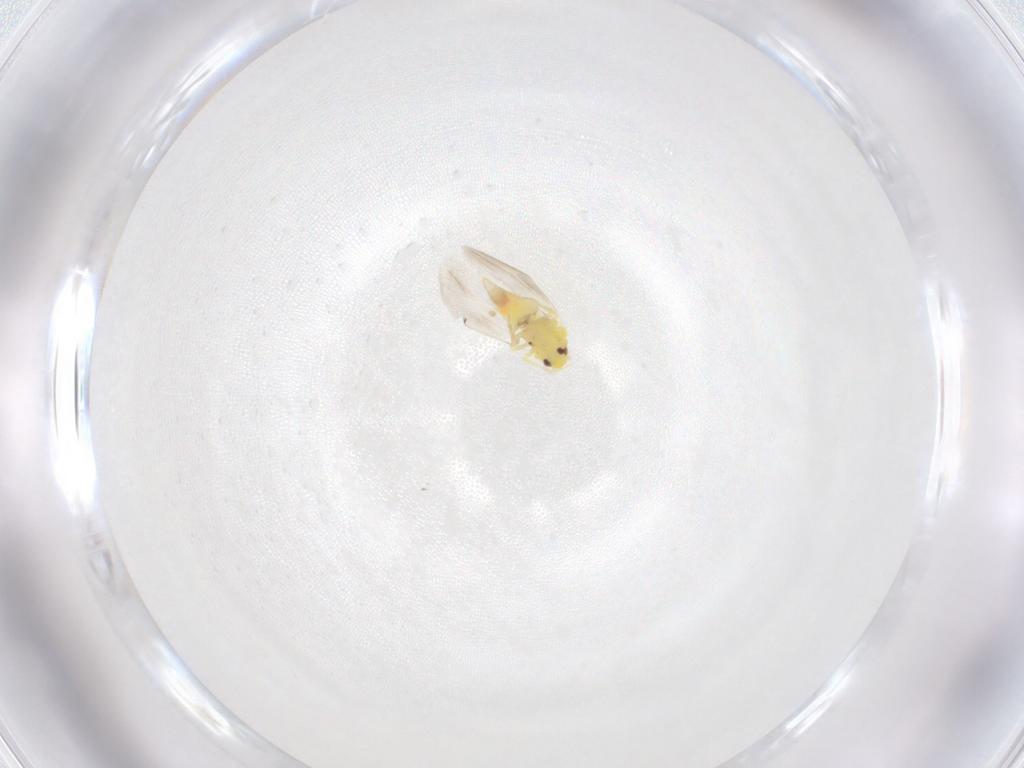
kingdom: Animalia
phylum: Arthropoda
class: Insecta
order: Hemiptera
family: Aleyrodidae
